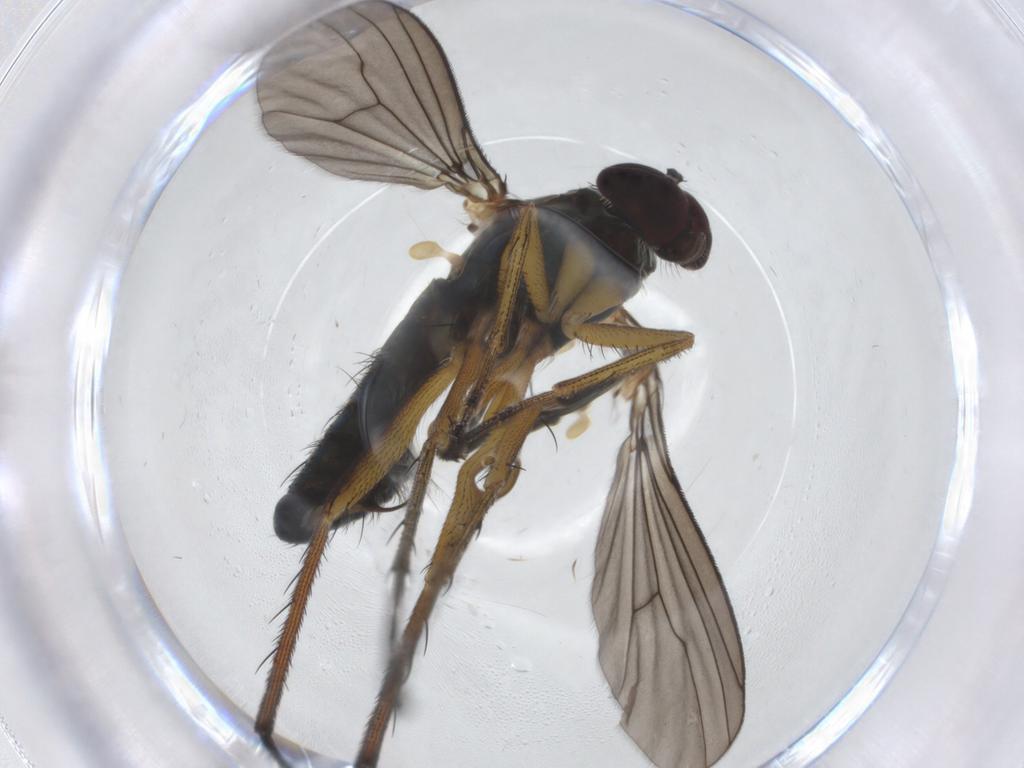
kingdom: Animalia
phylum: Arthropoda
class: Insecta
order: Diptera
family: Dolichopodidae
